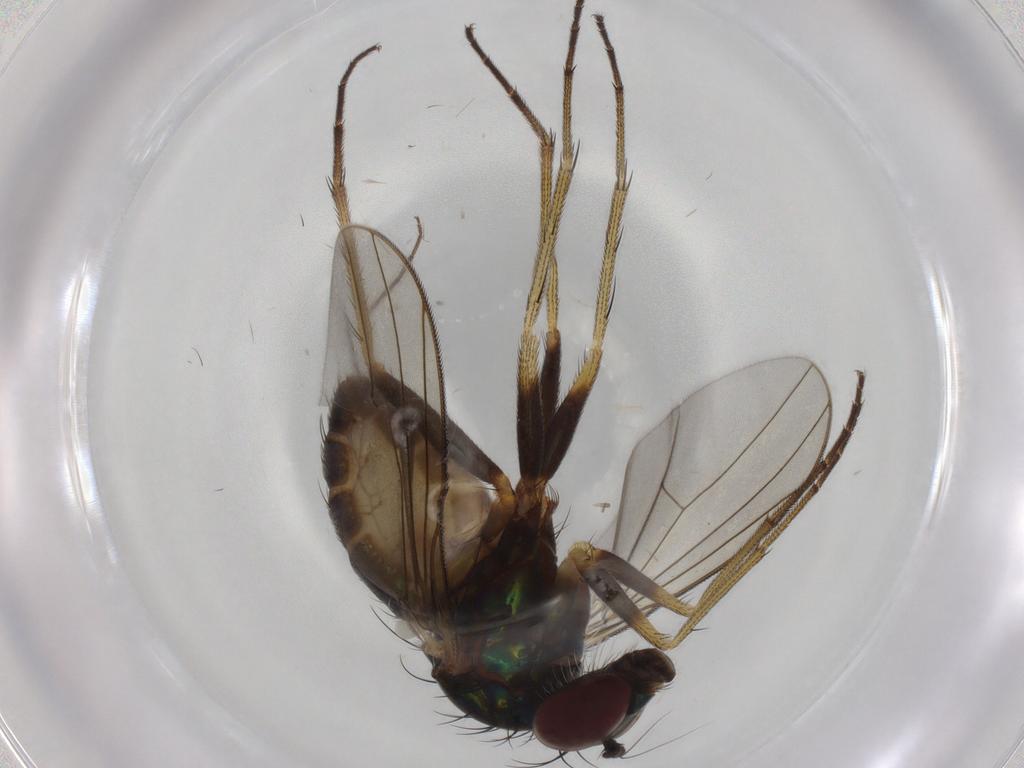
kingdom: Animalia
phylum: Arthropoda
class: Insecta
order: Diptera
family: Dolichopodidae
